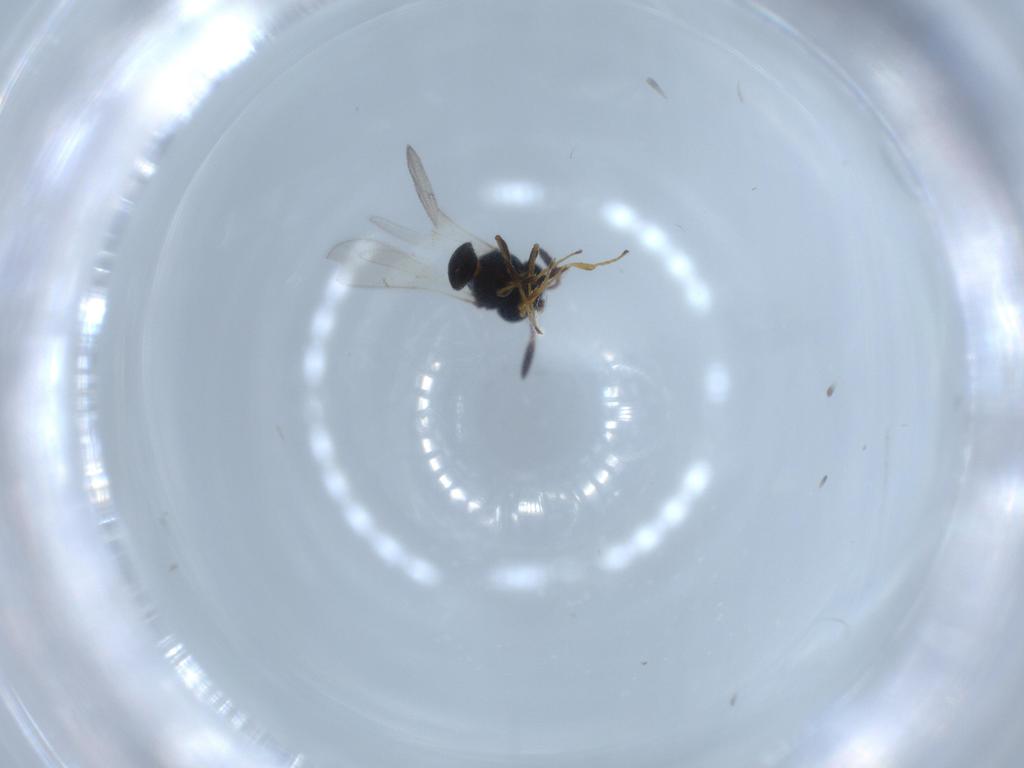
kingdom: Animalia
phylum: Arthropoda
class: Insecta
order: Hymenoptera
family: Scelionidae
